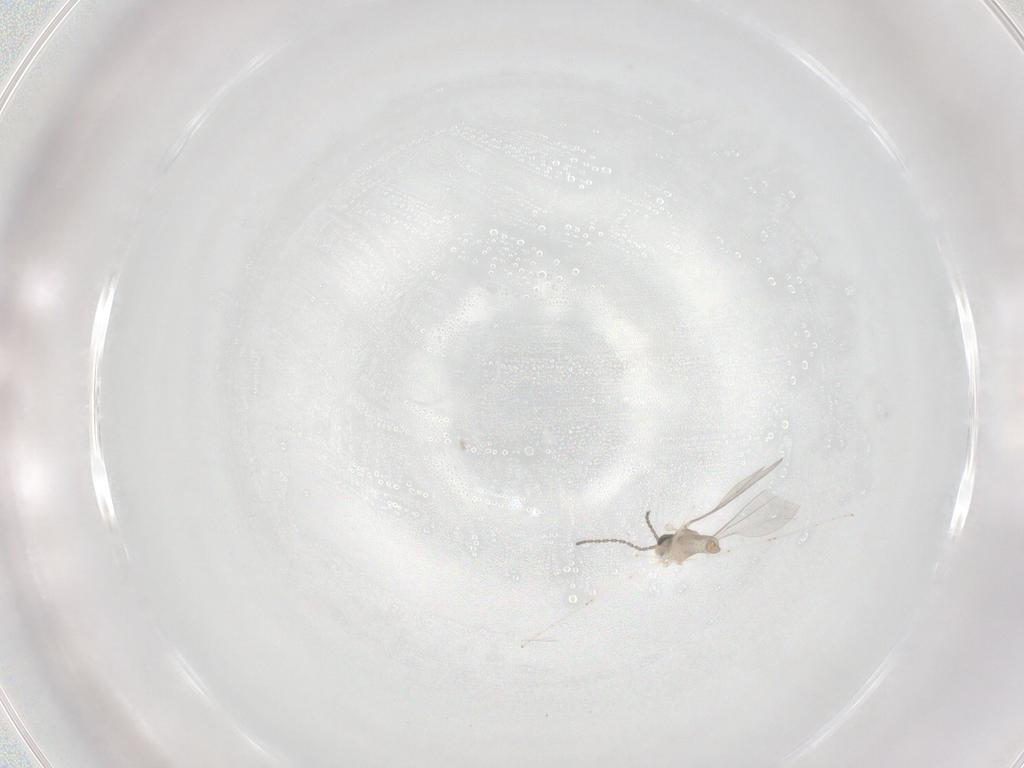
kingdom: Animalia
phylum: Arthropoda
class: Insecta
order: Diptera
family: Cecidomyiidae
